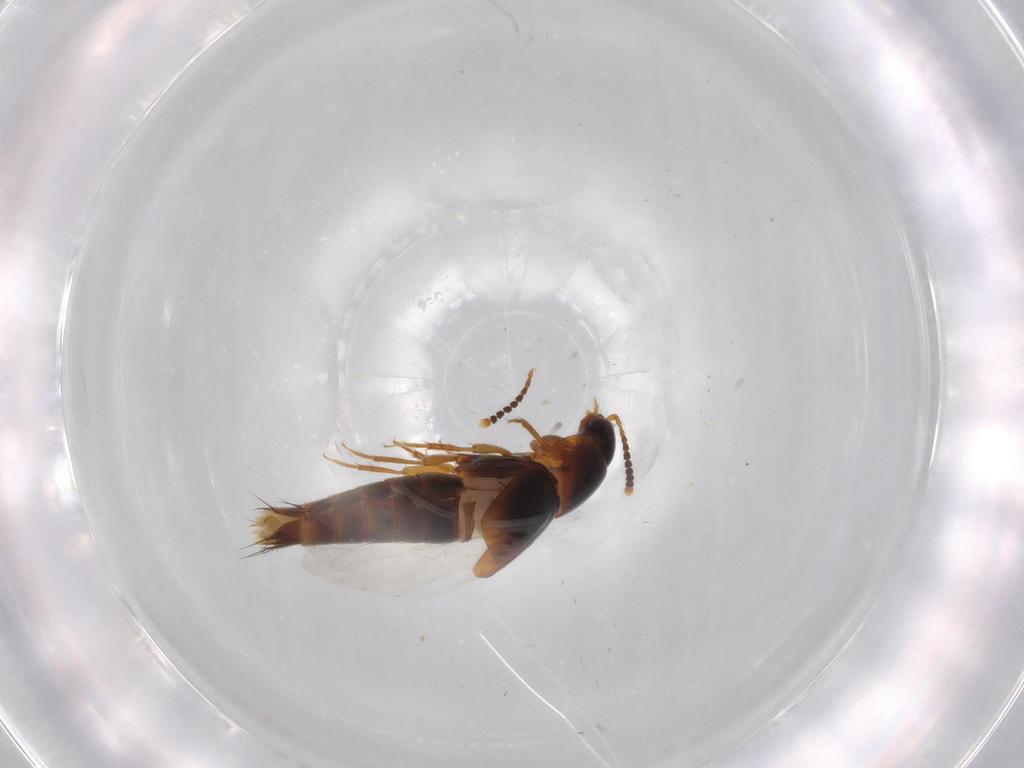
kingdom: Animalia
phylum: Arthropoda
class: Insecta
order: Coleoptera
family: Staphylinidae
